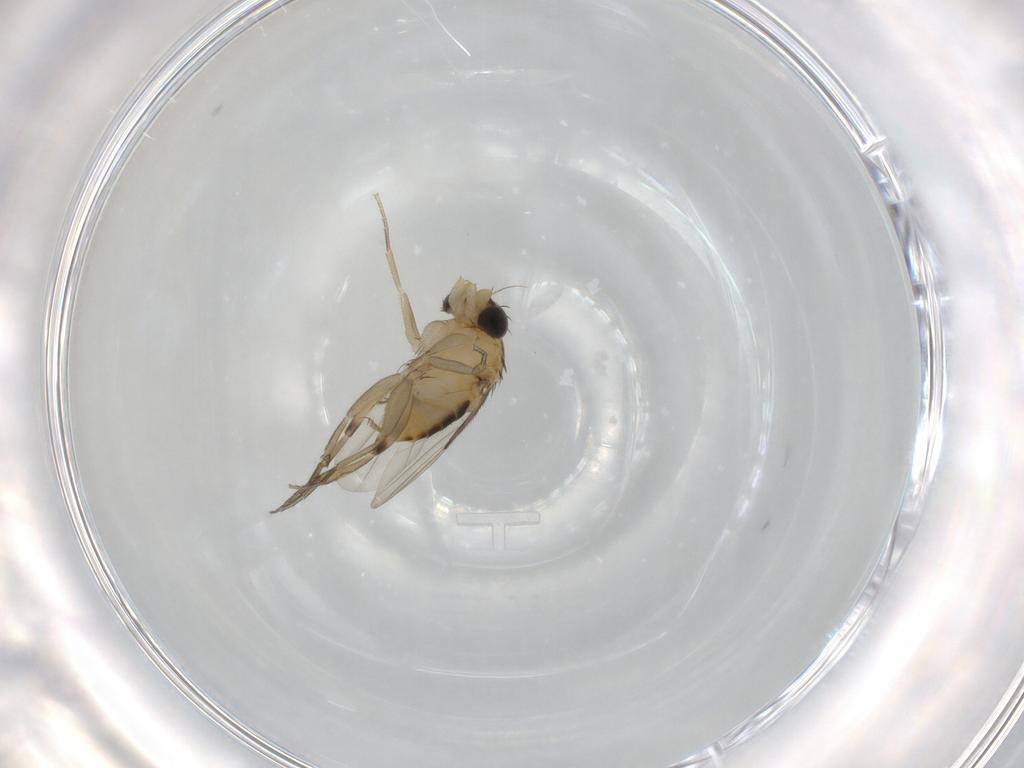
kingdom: Animalia
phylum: Arthropoda
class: Insecta
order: Diptera
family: Phoridae
